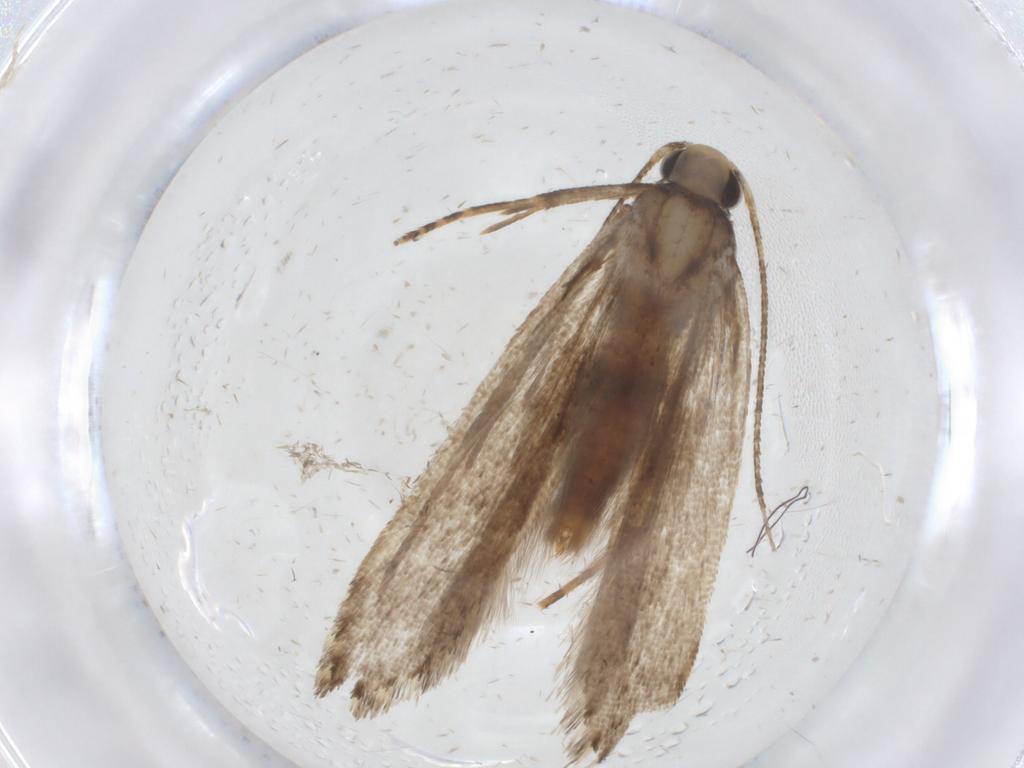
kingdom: Animalia
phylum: Arthropoda
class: Insecta
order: Lepidoptera
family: Gelechiidae
